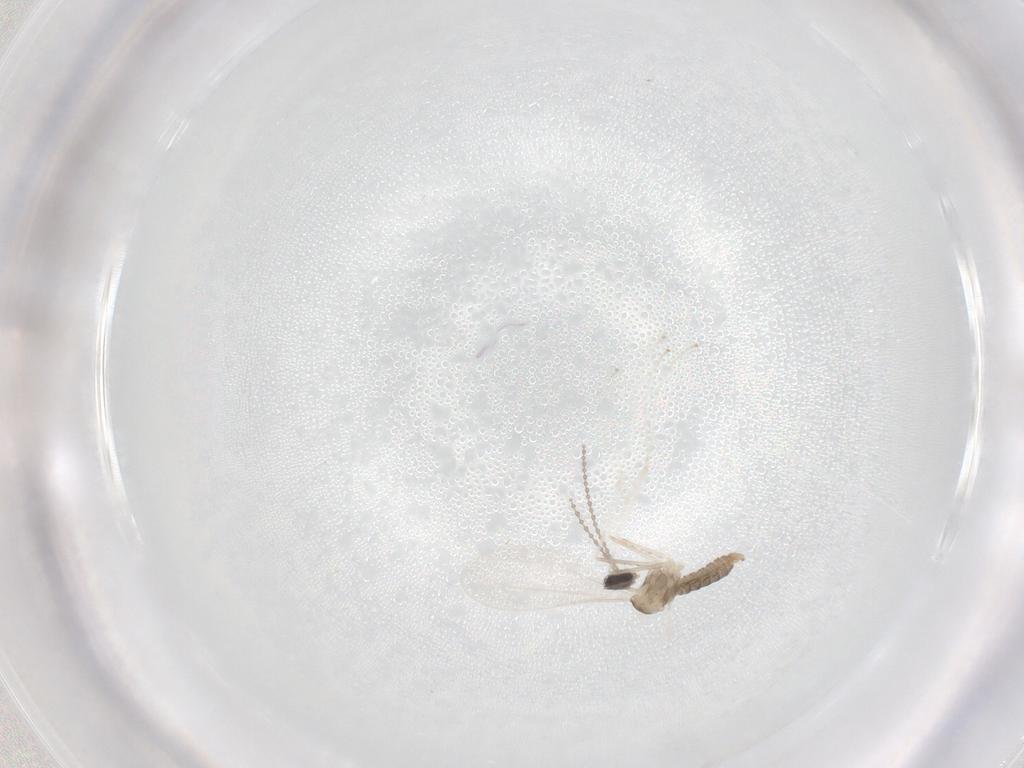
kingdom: Animalia
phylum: Arthropoda
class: Insecta
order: Diptera
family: Cecidomyiidae
